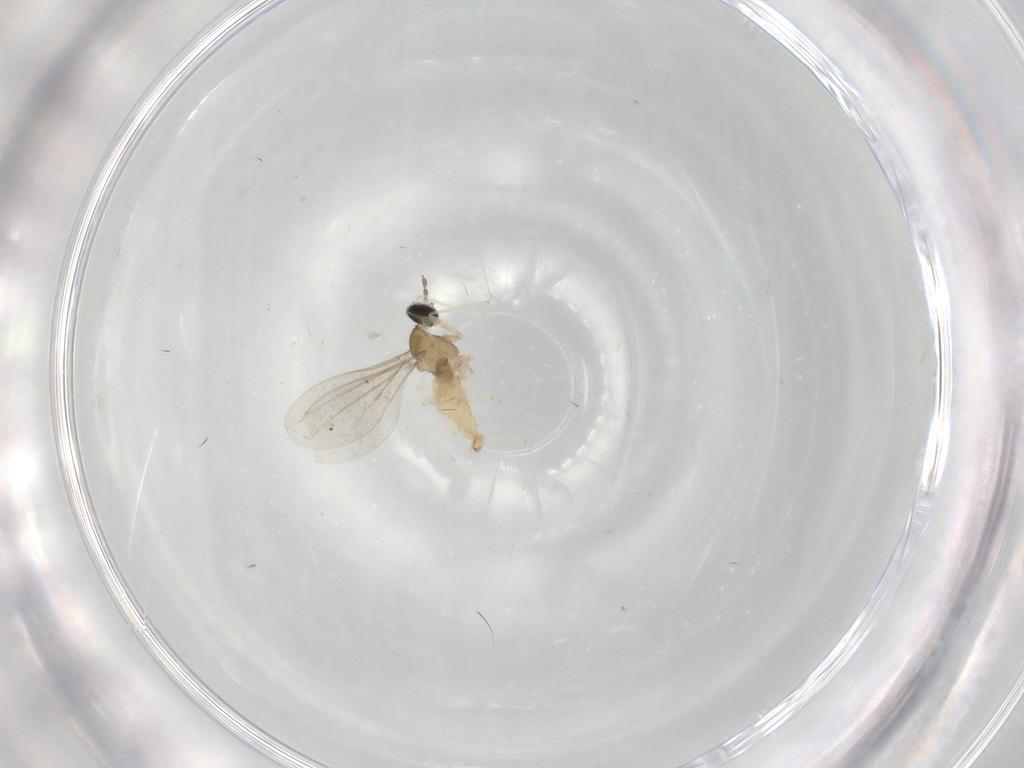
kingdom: Animalia
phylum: Arthropoda
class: Insecta
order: Diptera
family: Cecidomyiidae
